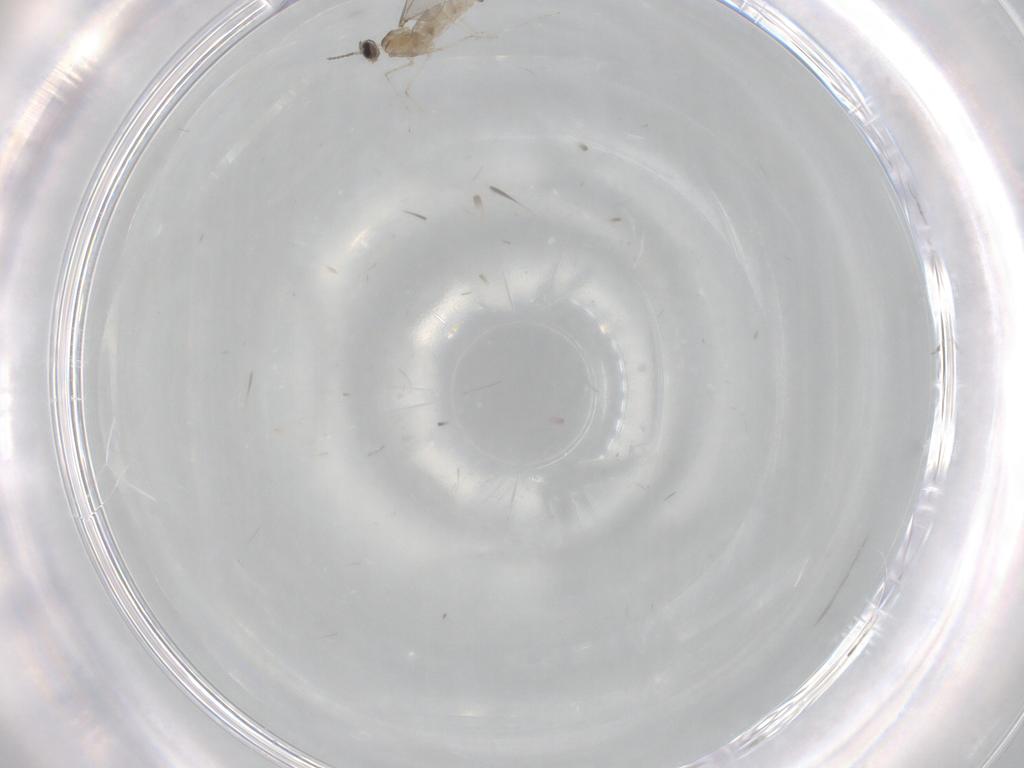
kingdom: Animalia
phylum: Arthropoda
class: Insecta
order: Diptera
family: Cecidomyiidae
